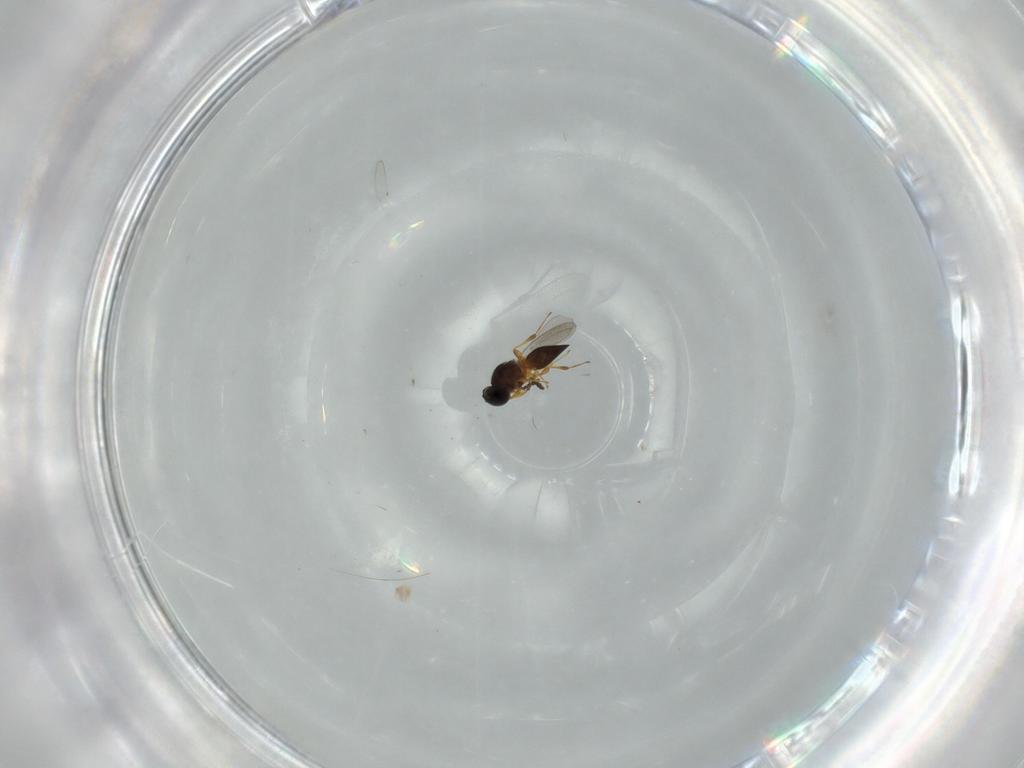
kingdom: Animalia
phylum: Arthropoda
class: Insecta
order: Hymenoptera
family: Platygastridae
